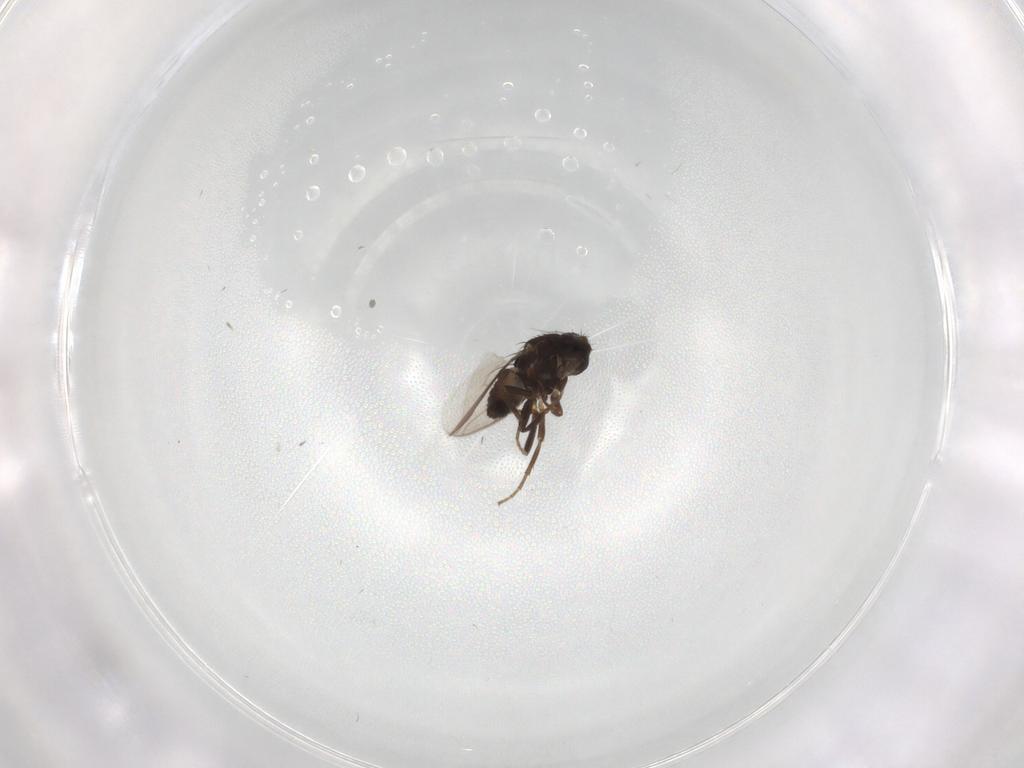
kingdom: Animalia
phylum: Arthropoda
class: Insecta
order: Diptera
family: Sphaeroceridae
